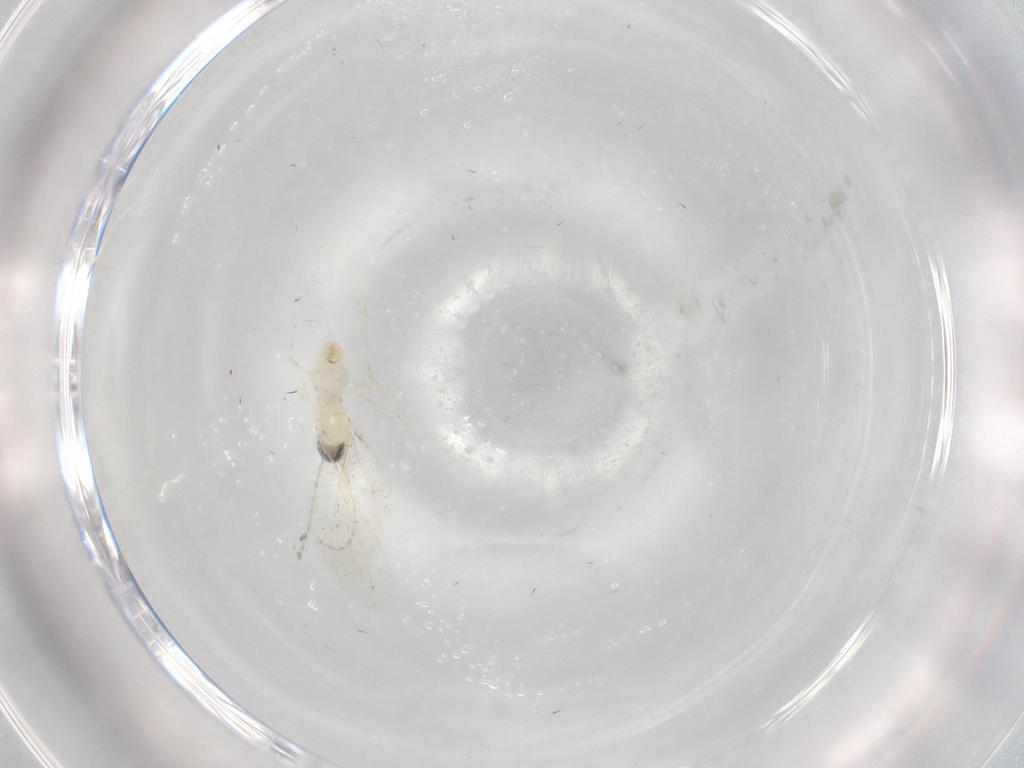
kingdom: Animalia
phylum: Arthropoda
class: Insecta
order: Diptera
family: Cecidomyiidae
